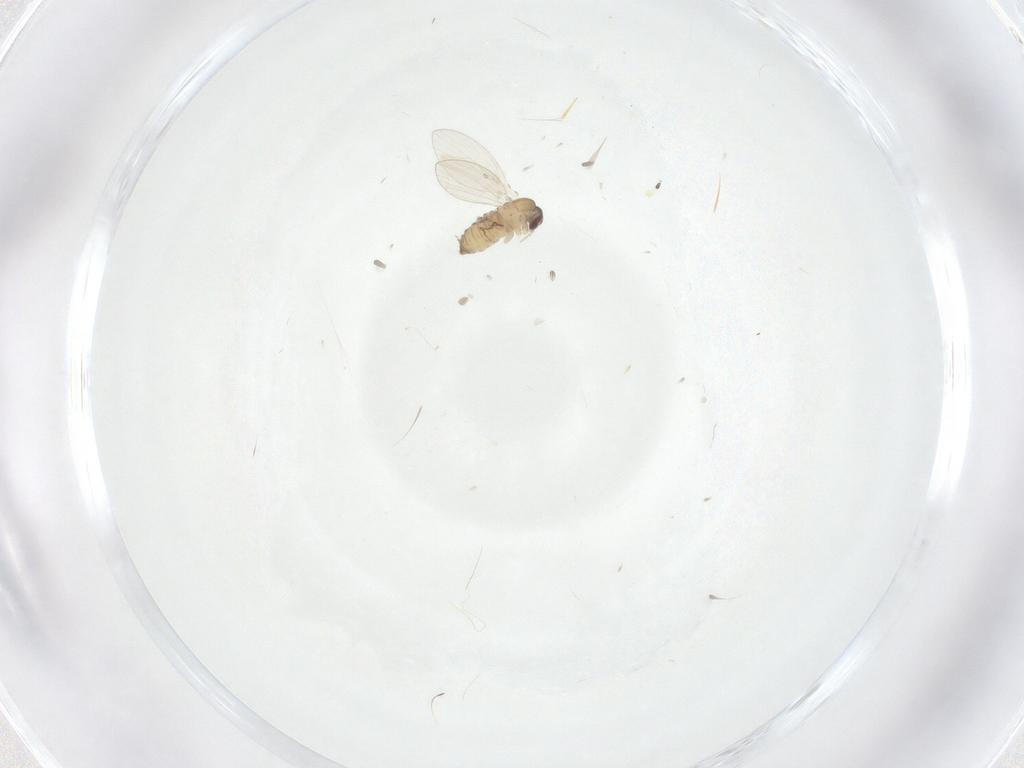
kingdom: Animalia
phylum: Arthropoda
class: Insecta
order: Diptera
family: Psychodidae
